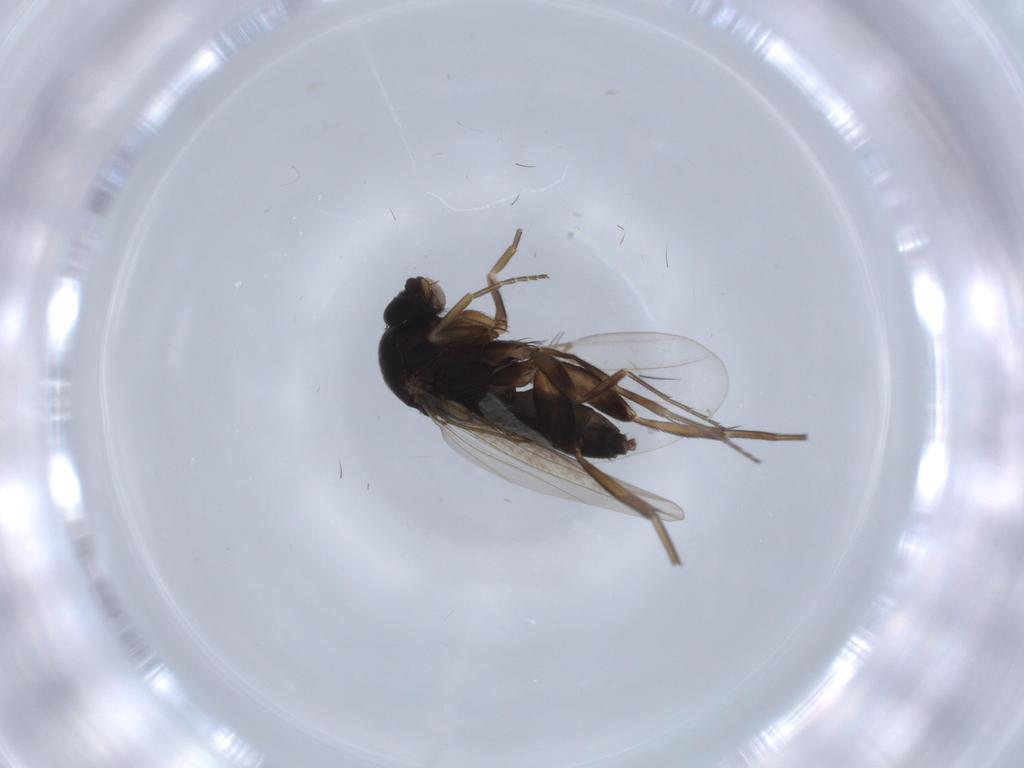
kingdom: Animalia
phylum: Arthropoda
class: Insecta
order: Diptera
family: Phoridae
